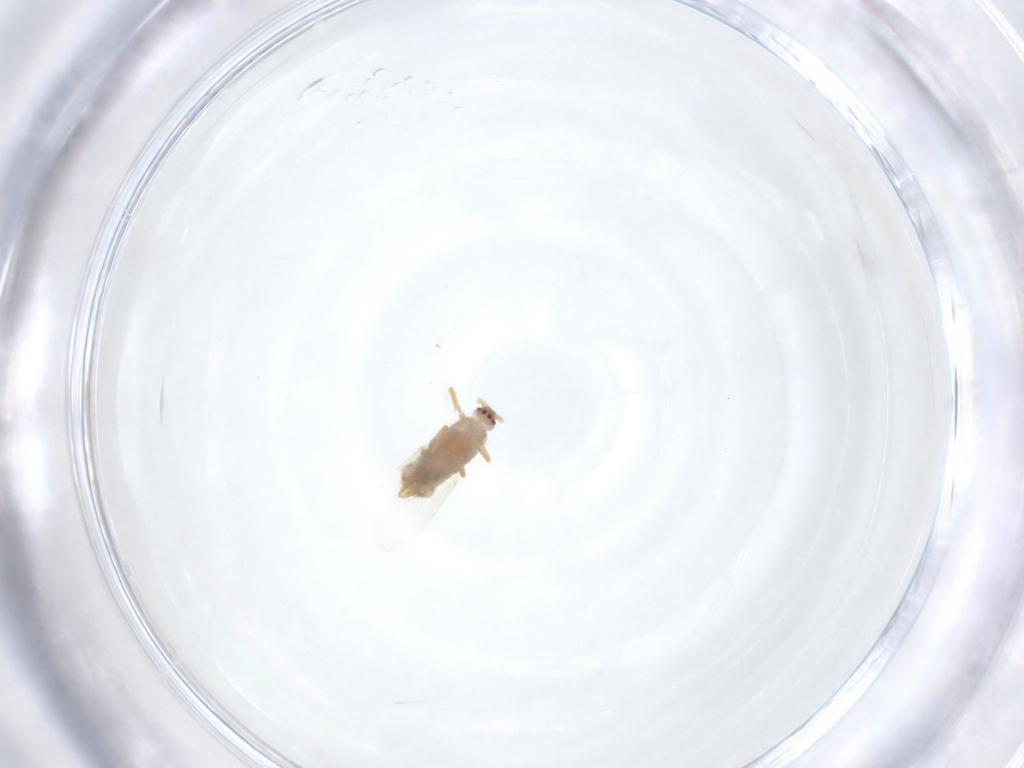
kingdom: Animalia
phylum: Arthropoda
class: Insecta
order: Hemiptera
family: Pseudococcidae
